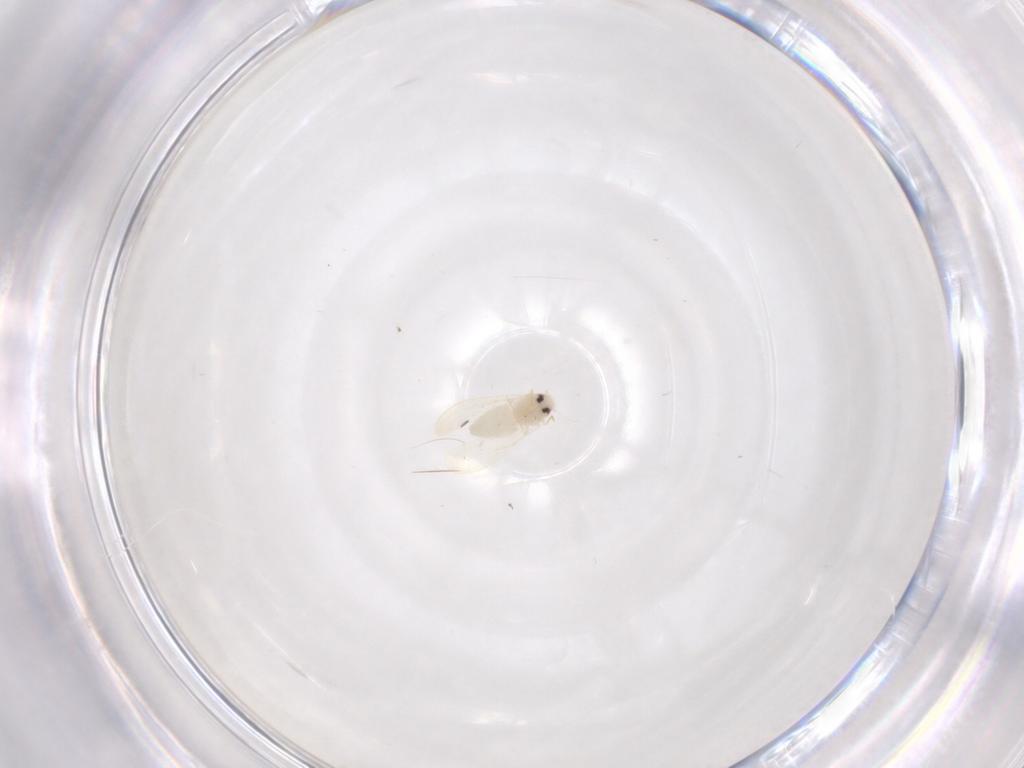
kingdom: Animalia
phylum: Arthropoda
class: Insecta
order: Diptera
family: Cecidomyiidae
